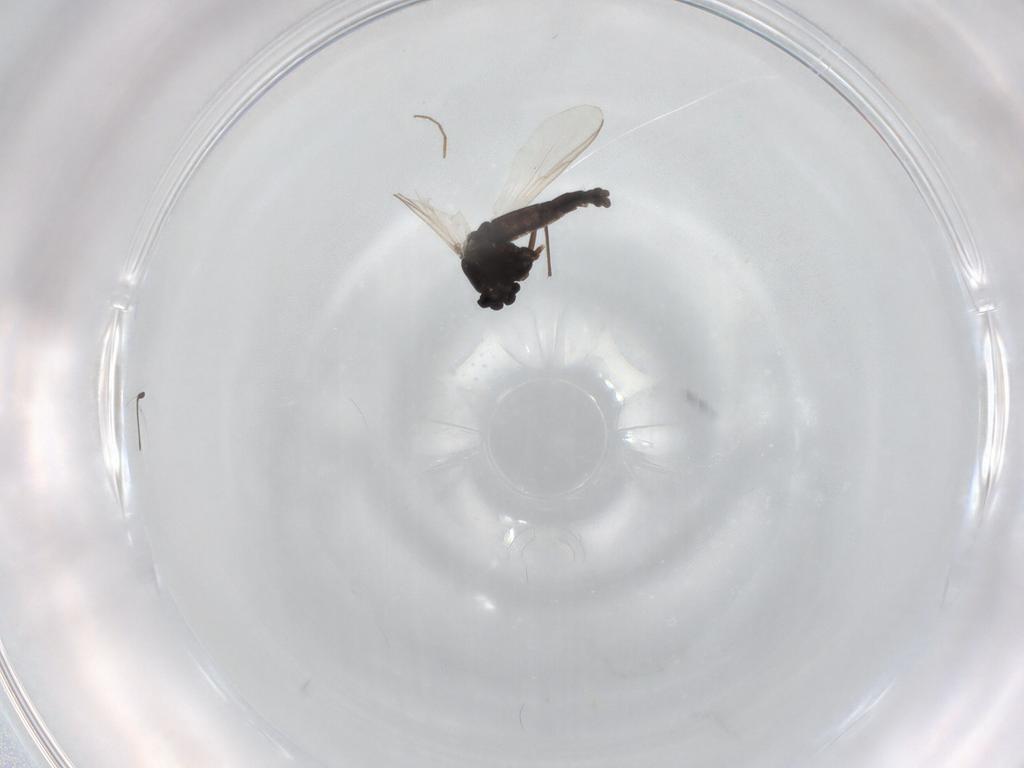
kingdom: Animalia
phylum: Arthropoda
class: Insecta
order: Diptera
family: Chironomidae
